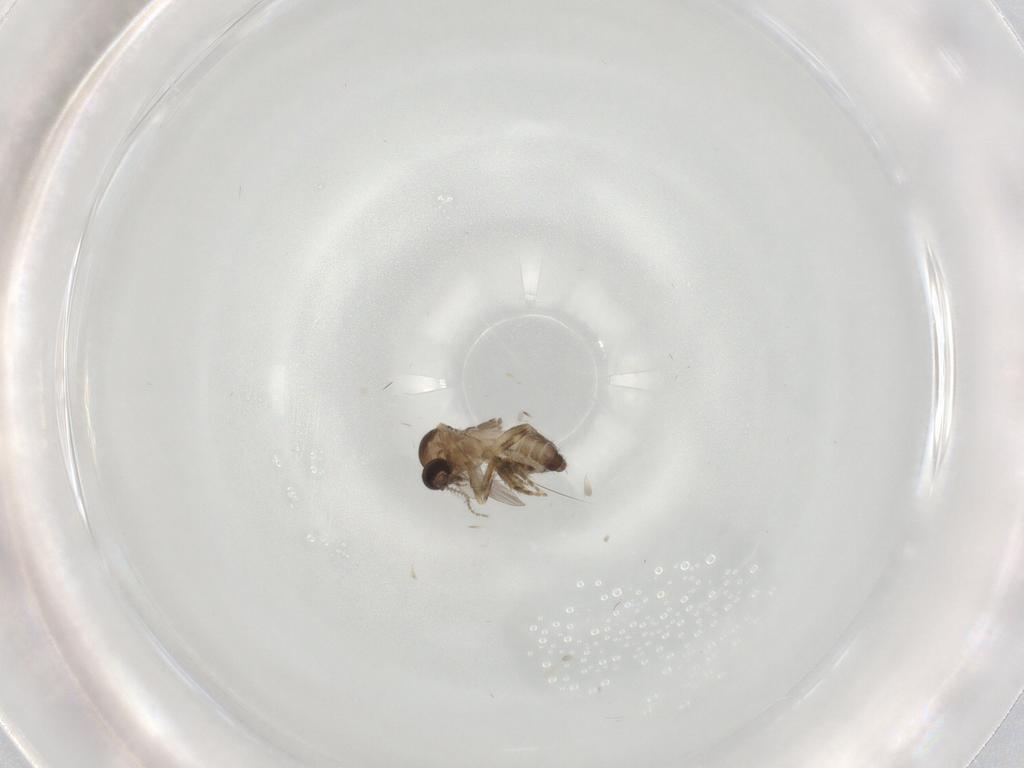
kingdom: Animalia
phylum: Arthropoda
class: Insecta
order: Diptera
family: Ceratopogonidae
